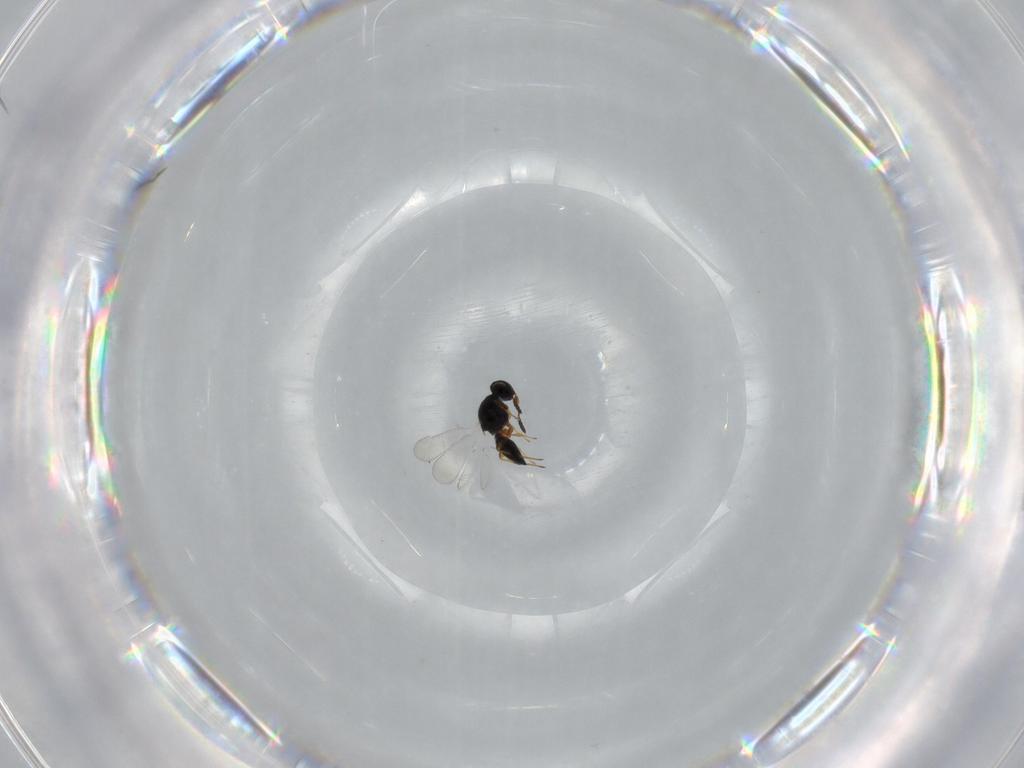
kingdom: Animalia
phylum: Arthropoda
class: Insecta
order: Hymenoptera
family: Platygastridae
